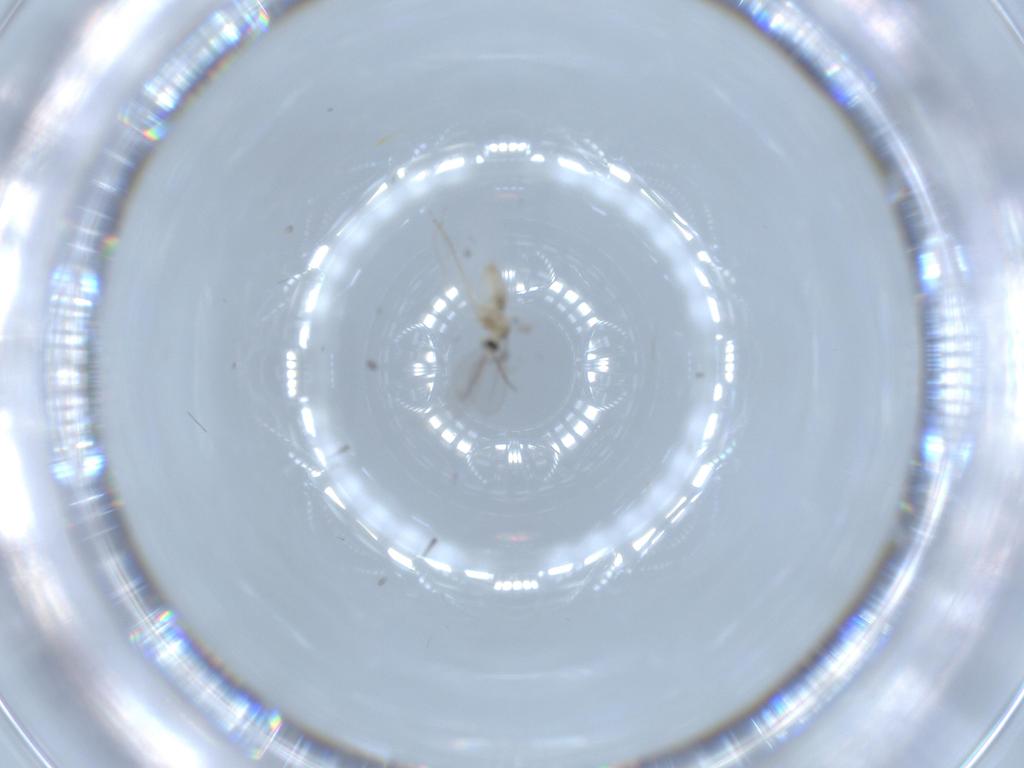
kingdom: Animalia
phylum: Arthropoda
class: Insecta
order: Diptera
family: Cecidomyiidae
